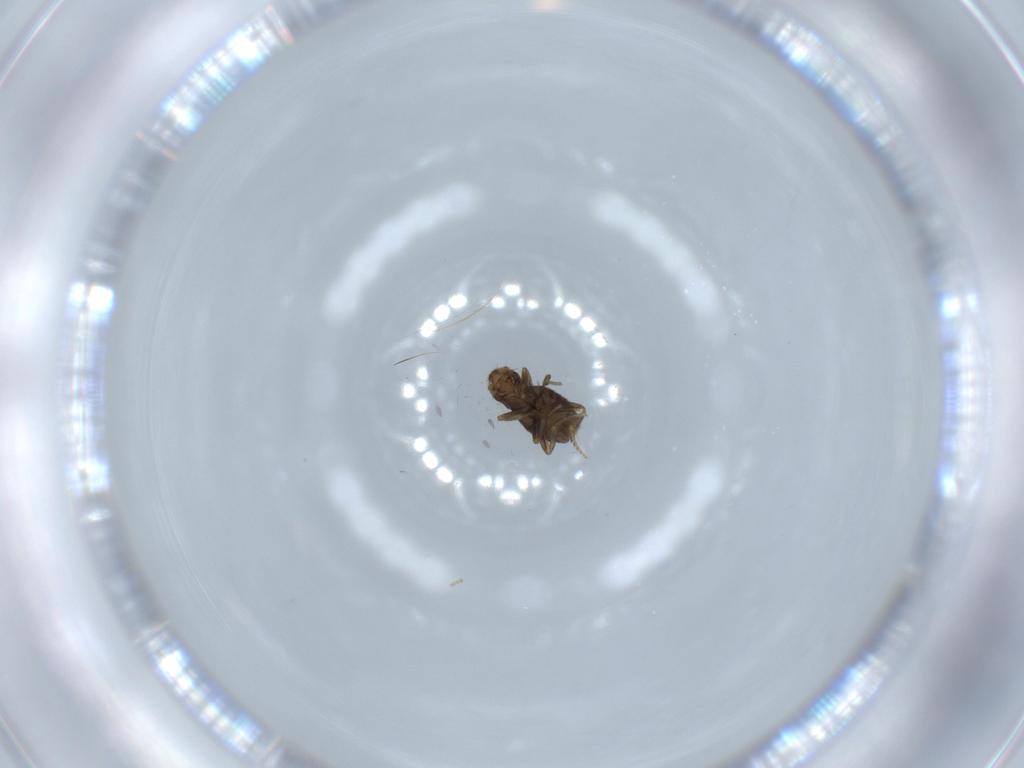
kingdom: Animalia
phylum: Arthropoda
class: Insecta
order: Diptera
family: Phoridae
